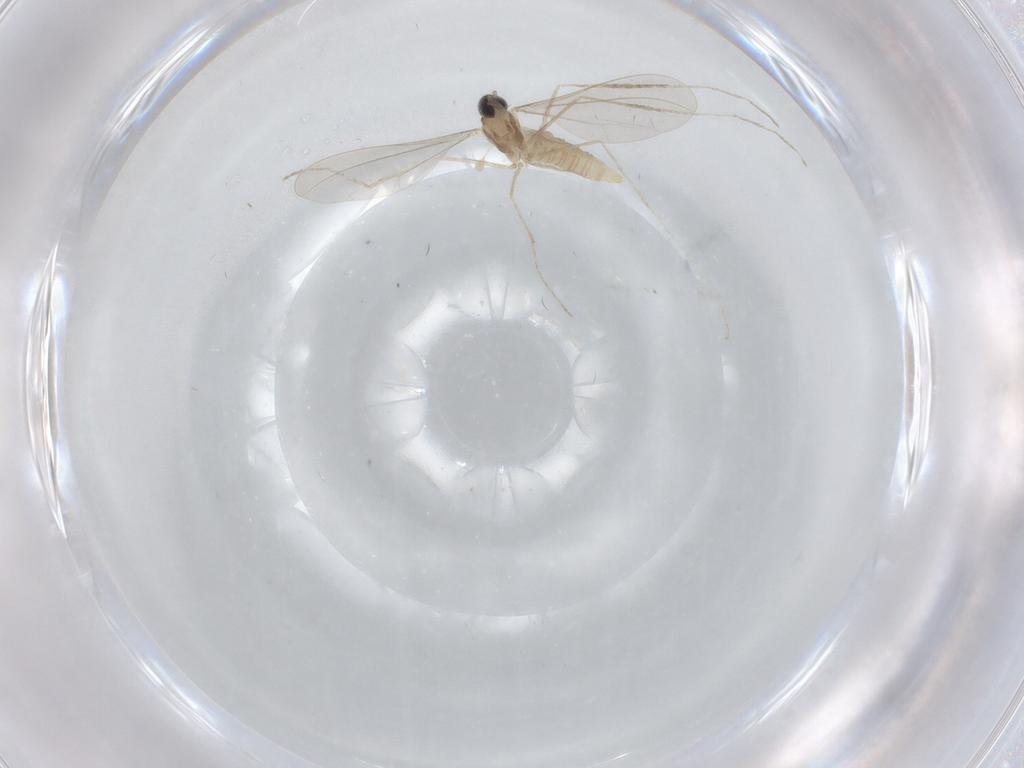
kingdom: Animalia
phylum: Arthropoda
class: Insecta
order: Diptera
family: Cecidomyiidae
